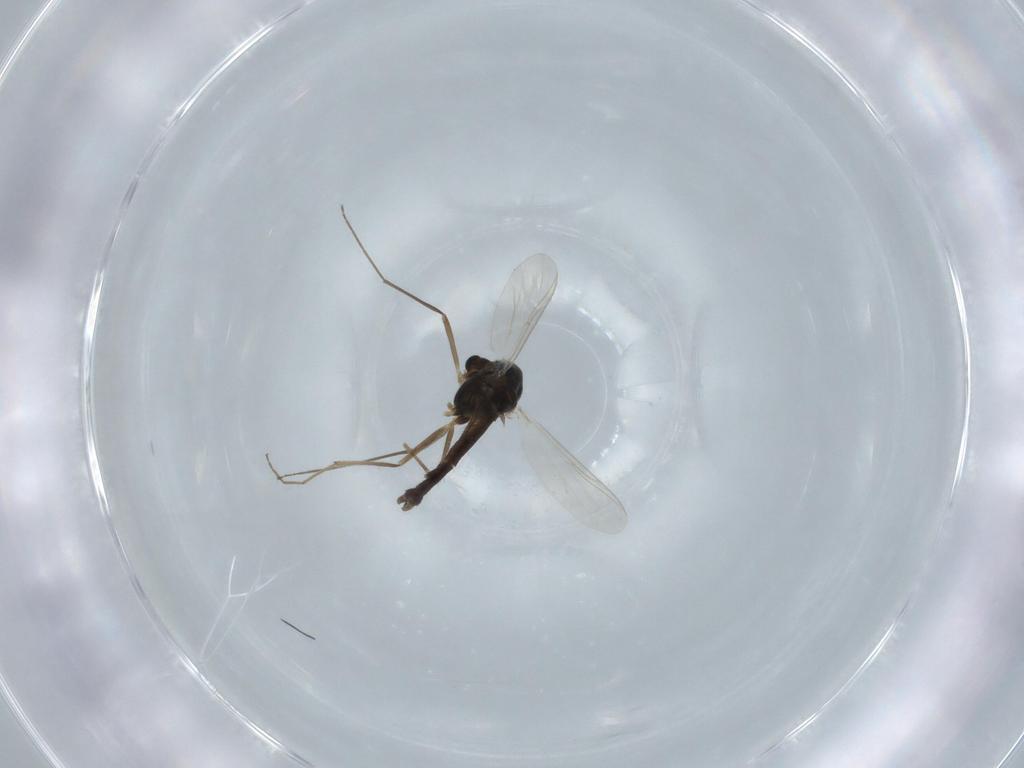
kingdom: Animalia
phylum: Arthropoda
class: Insecta
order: Diptera
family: Chironomidae
